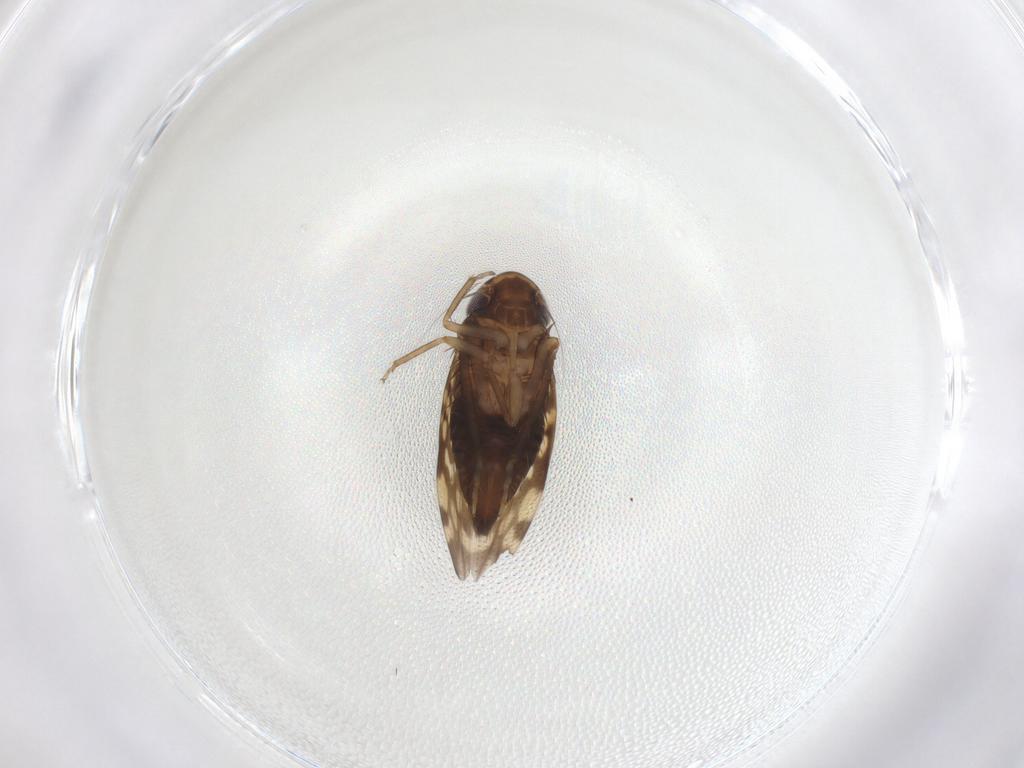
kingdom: Animalia
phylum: Arthropoda
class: Insecta
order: Hemiptera
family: Cicadellidae
